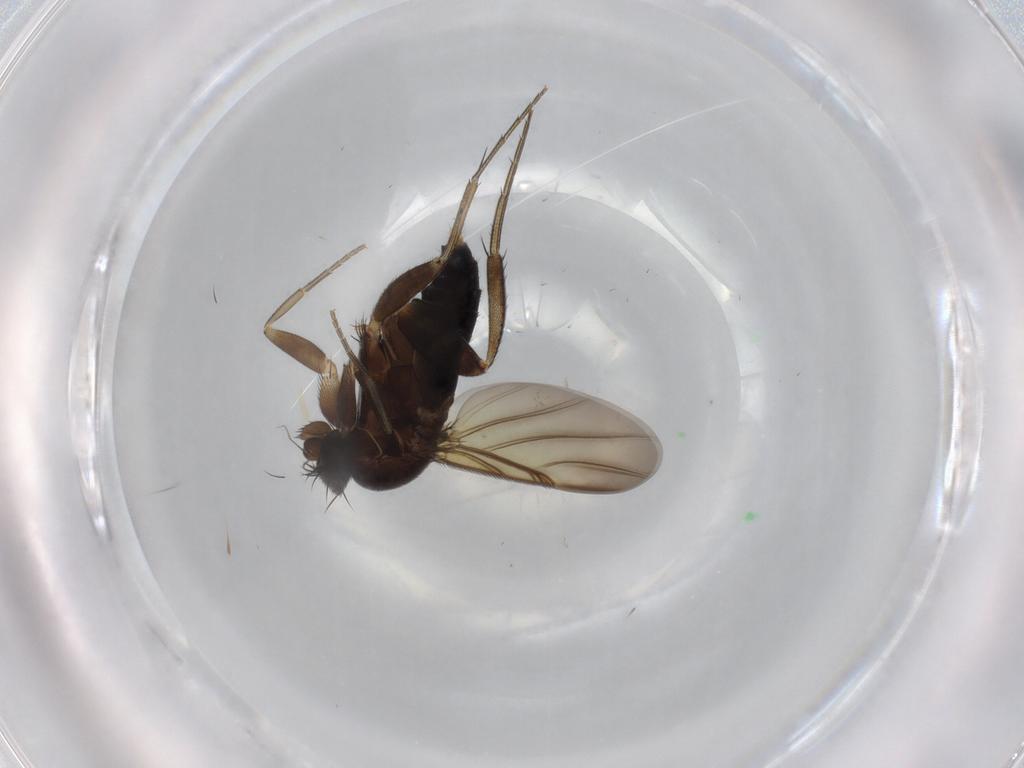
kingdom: Animalia
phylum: Arthropoda
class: Insecta
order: Diptera
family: Phoridae
